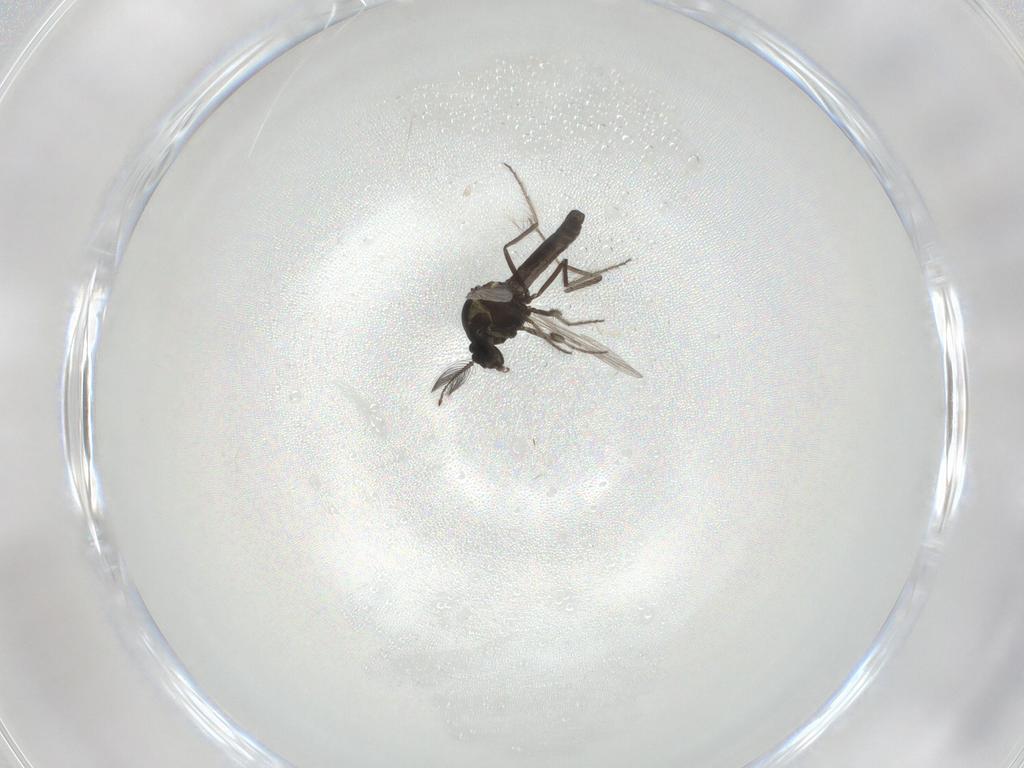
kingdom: Animalia
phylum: Arthropoda
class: Insecta
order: Diptera
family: Ceratopogonidae
